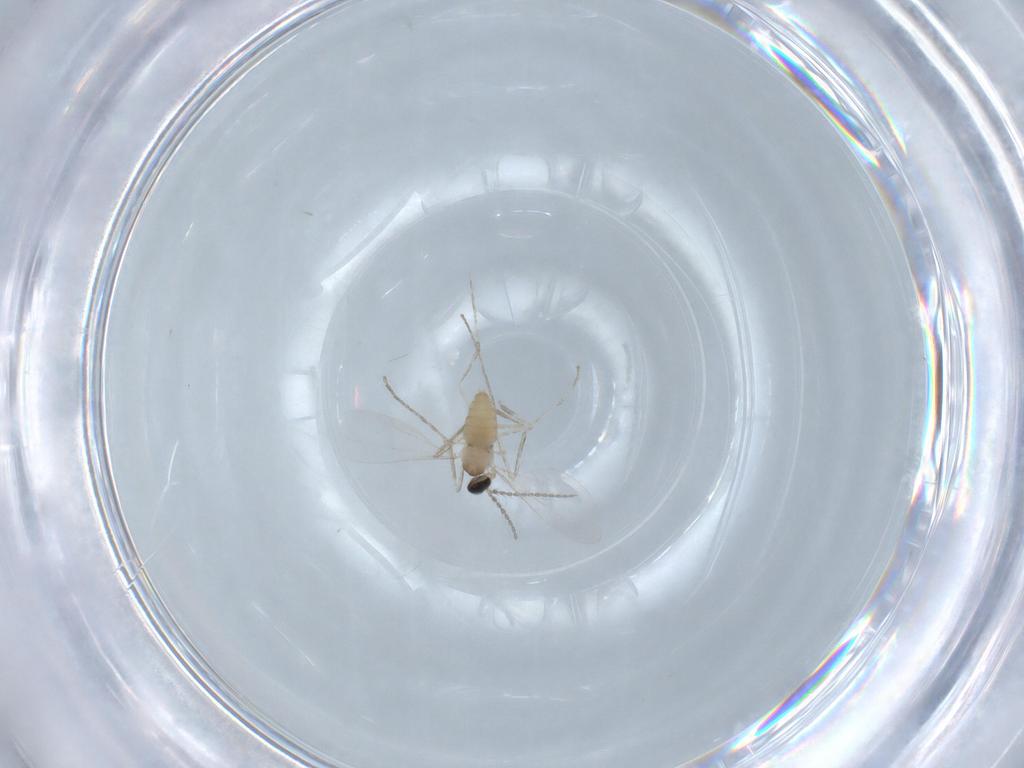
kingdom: Animalia
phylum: Arthropoda
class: Insecta
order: Diptera
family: Cecidomyiidae
